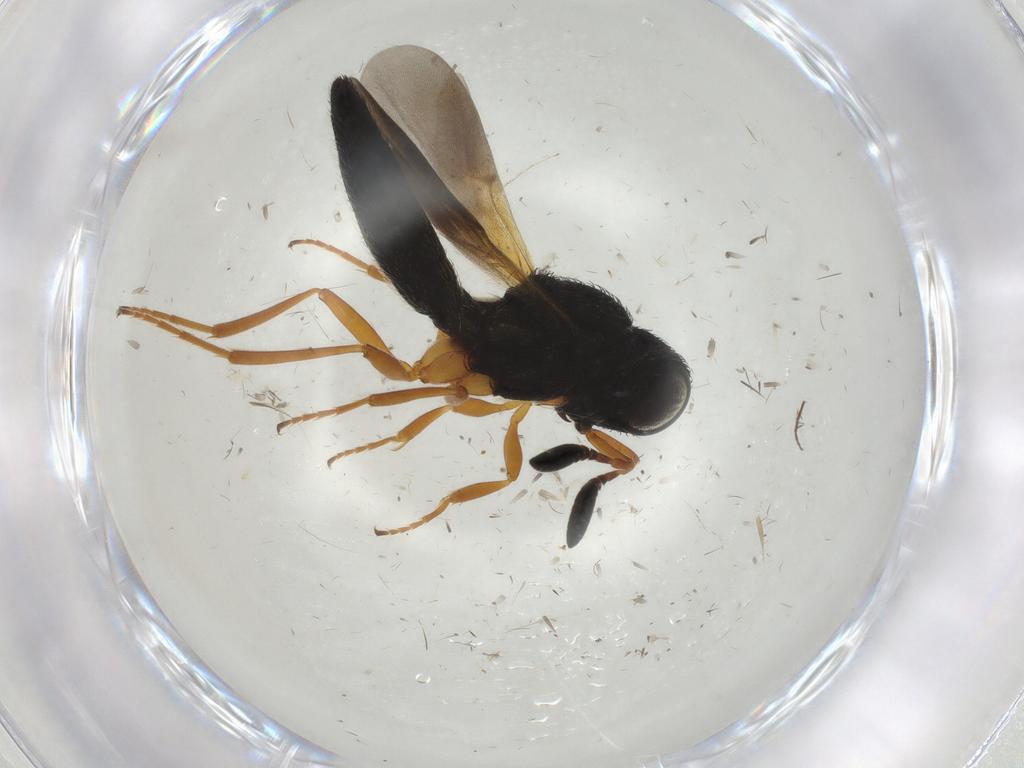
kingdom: Animalia
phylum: Arthropoda
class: Insecta
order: Hymenoptera
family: Scelionidae
